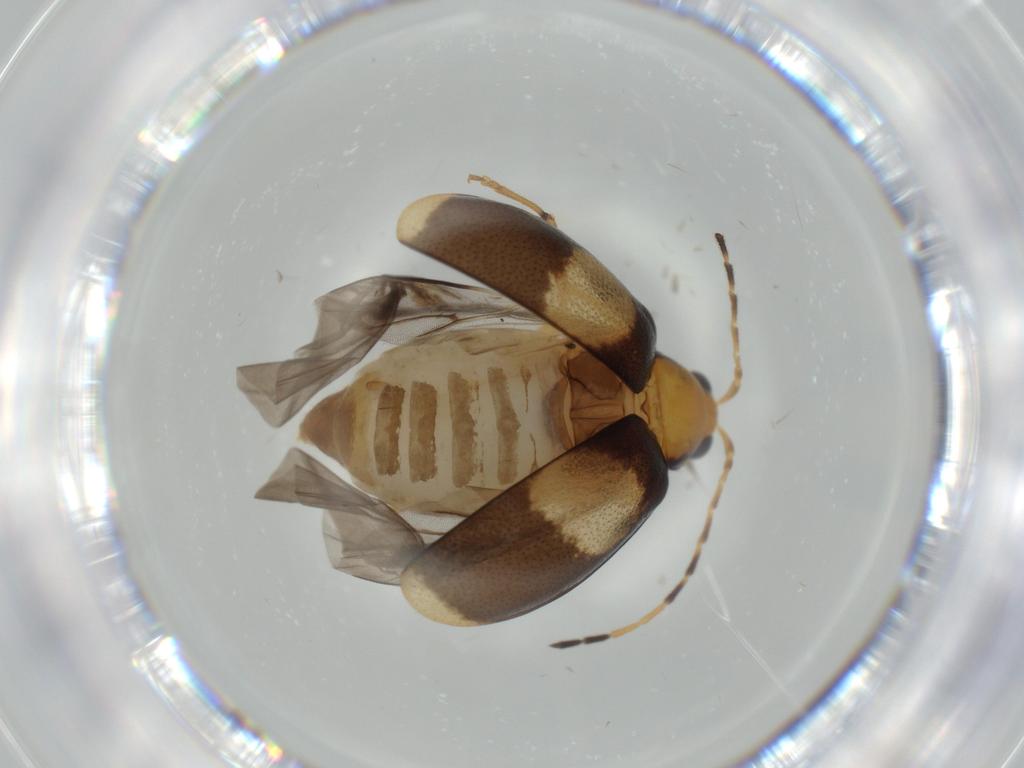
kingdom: Animalia
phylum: Arthropoda
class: Insecta
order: Coleoptera
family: Chrysomelidae
